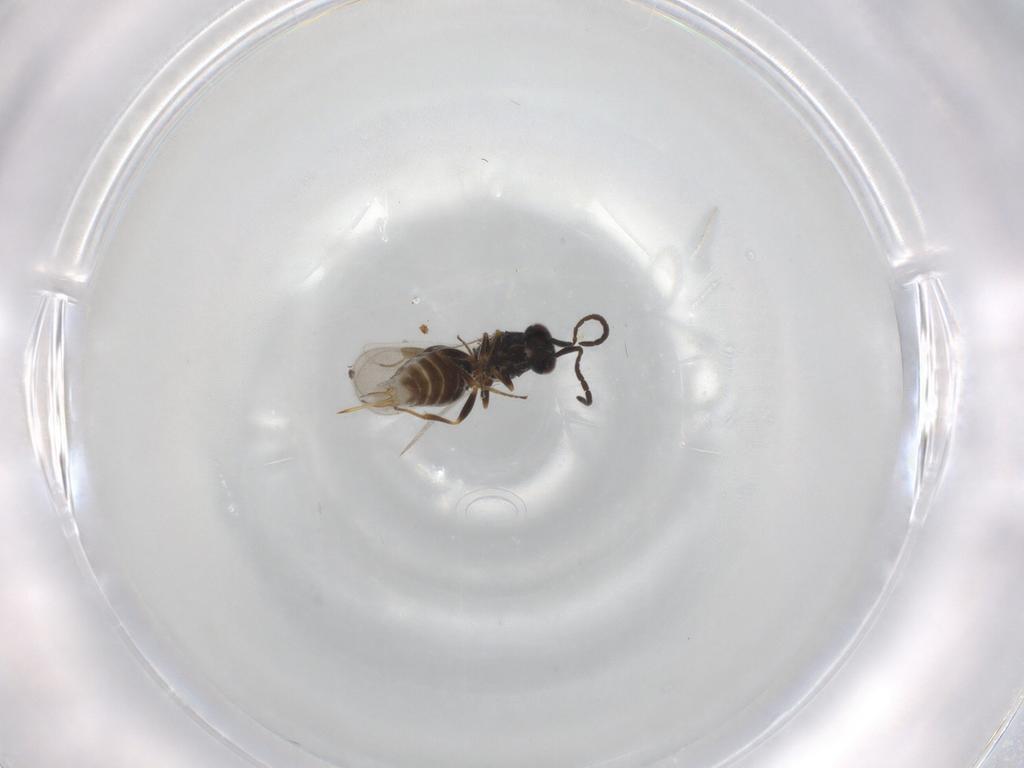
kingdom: Animalia
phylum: Arthropoda
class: Insecta
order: Hymenoptera
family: Megaspilidae
